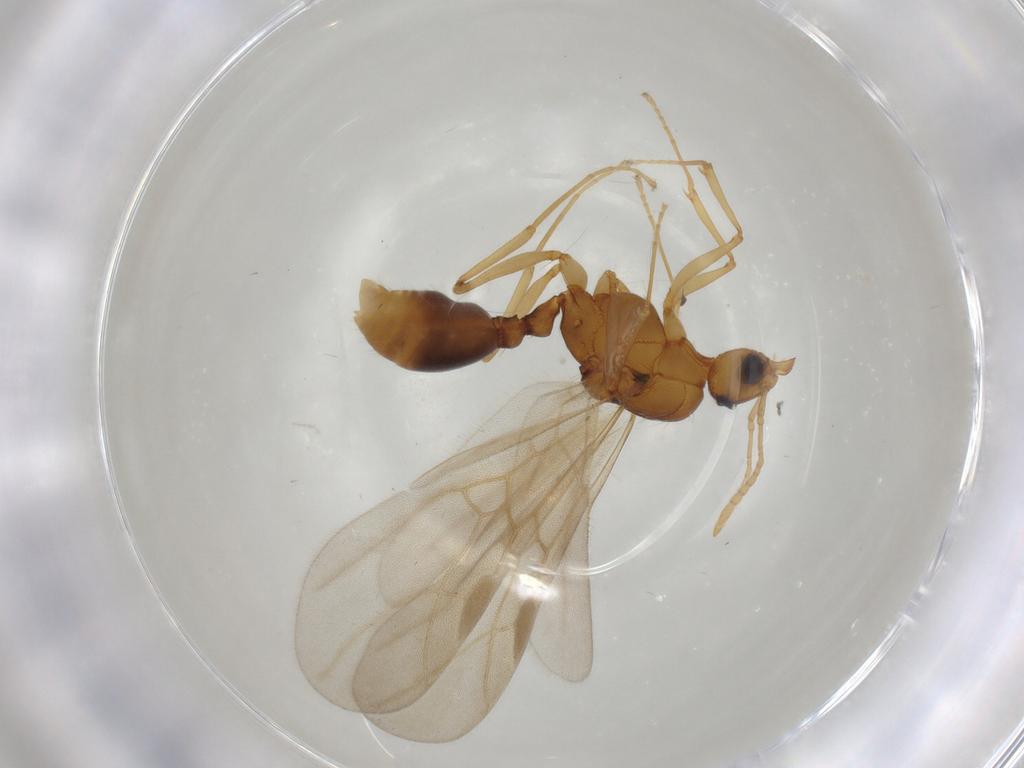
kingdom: Animalia
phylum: Arthropoda
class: Insecta
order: Hymenoptera
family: Formicidae
